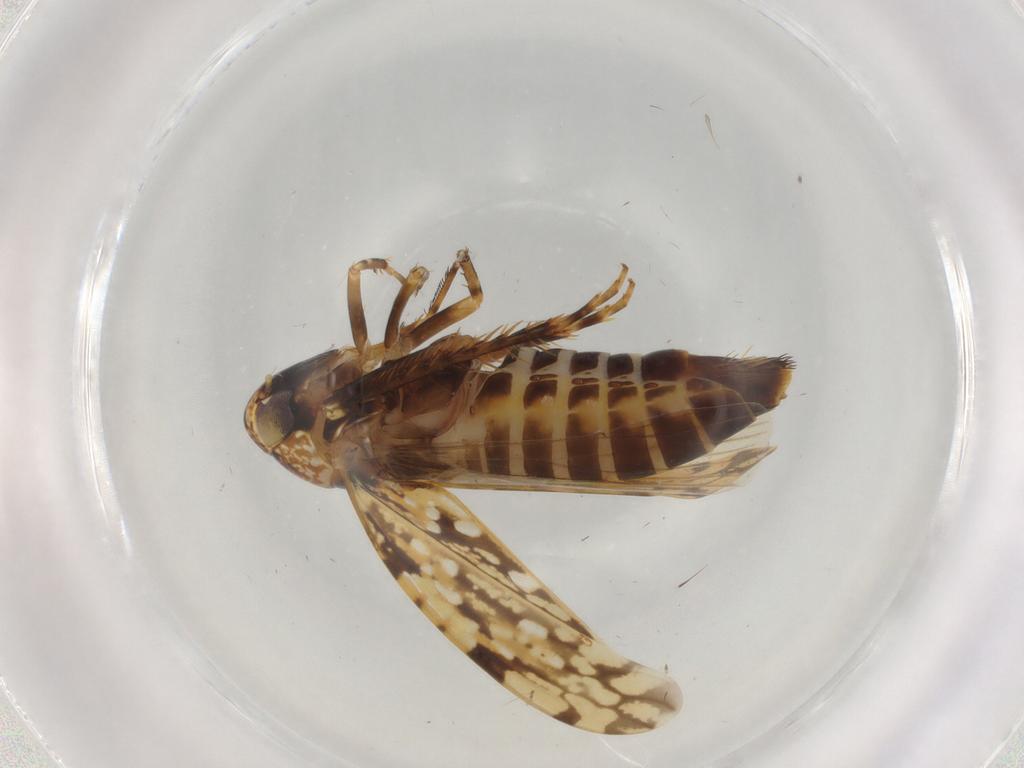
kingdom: Animalia
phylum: Arthropoda
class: Insecta
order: Hemiptera
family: Cicadellidae
